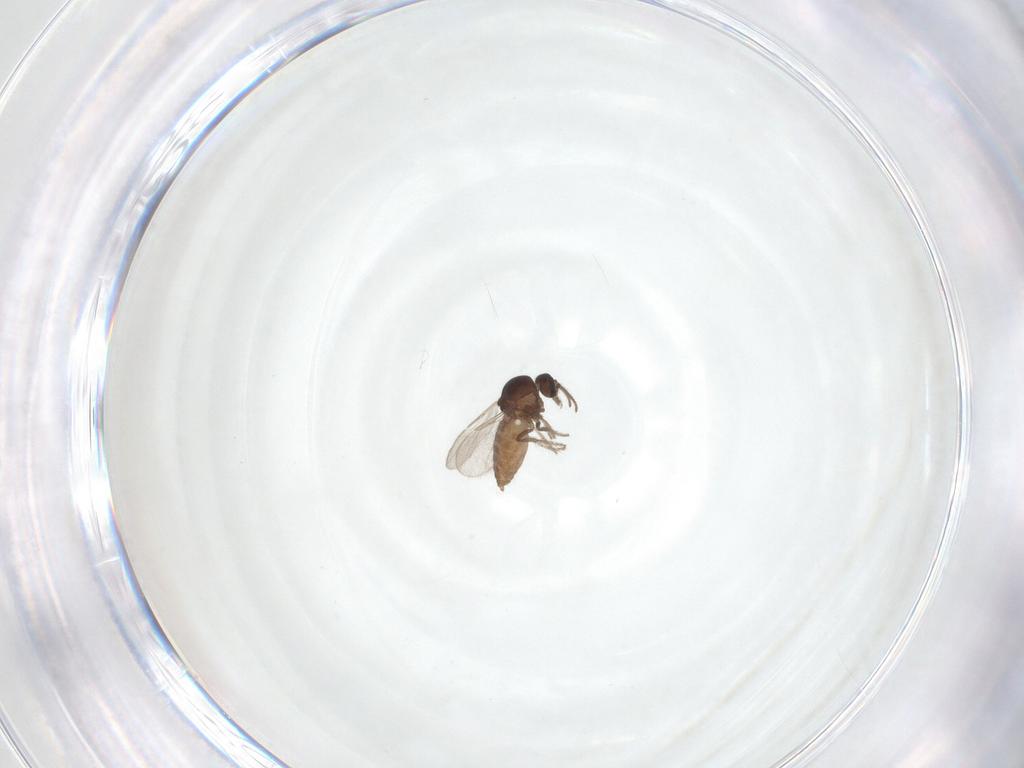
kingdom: Animalia
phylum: Arthropoda
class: Insecta
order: Diptera
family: Ceratopogonidae
